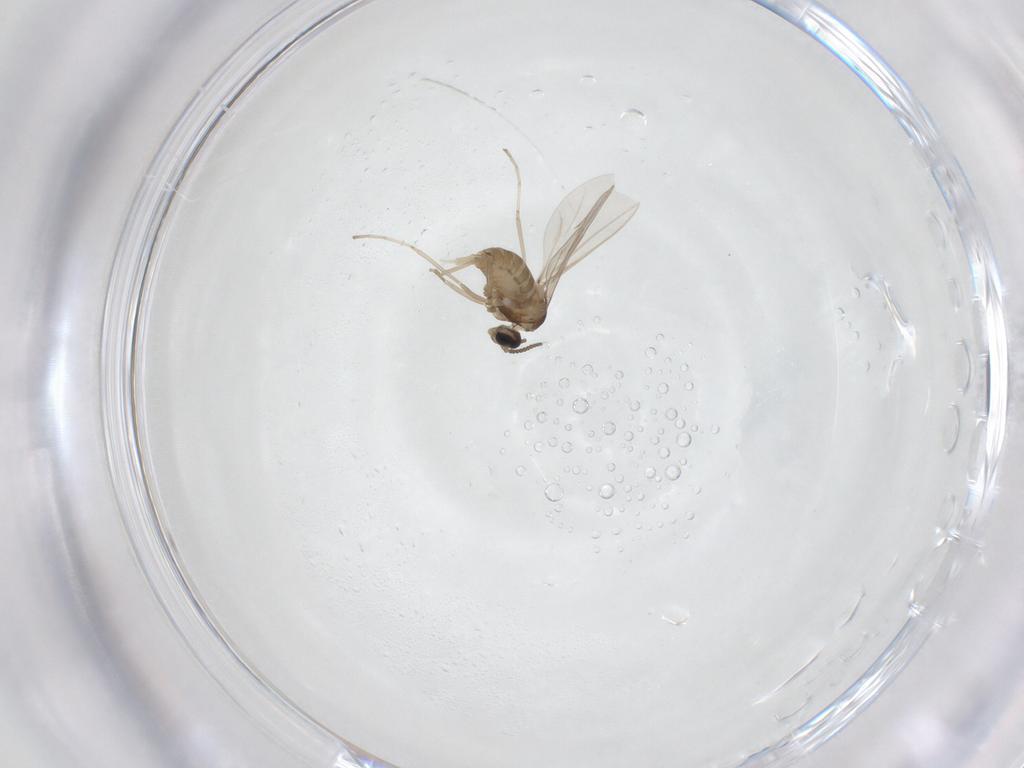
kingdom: Animalia
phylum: Arthropoda
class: Insecta
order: Diptera
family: Cecidomyiidae
